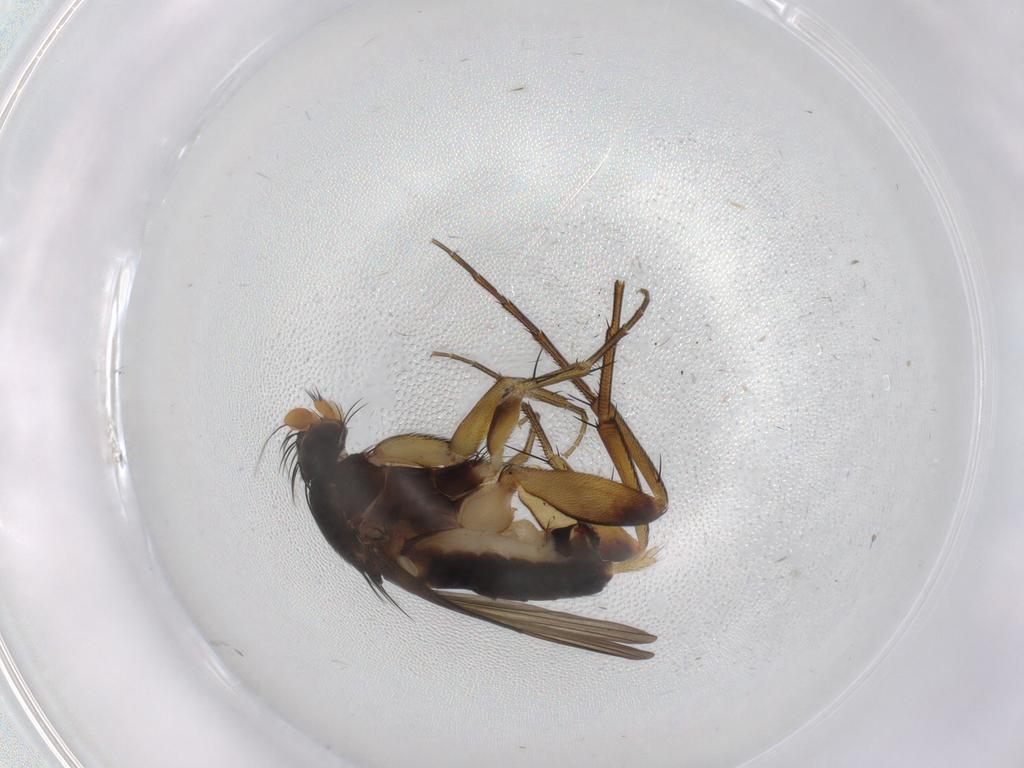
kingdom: Animalia
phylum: Arthropoda
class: Insecta
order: Diptera
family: Phoridae
